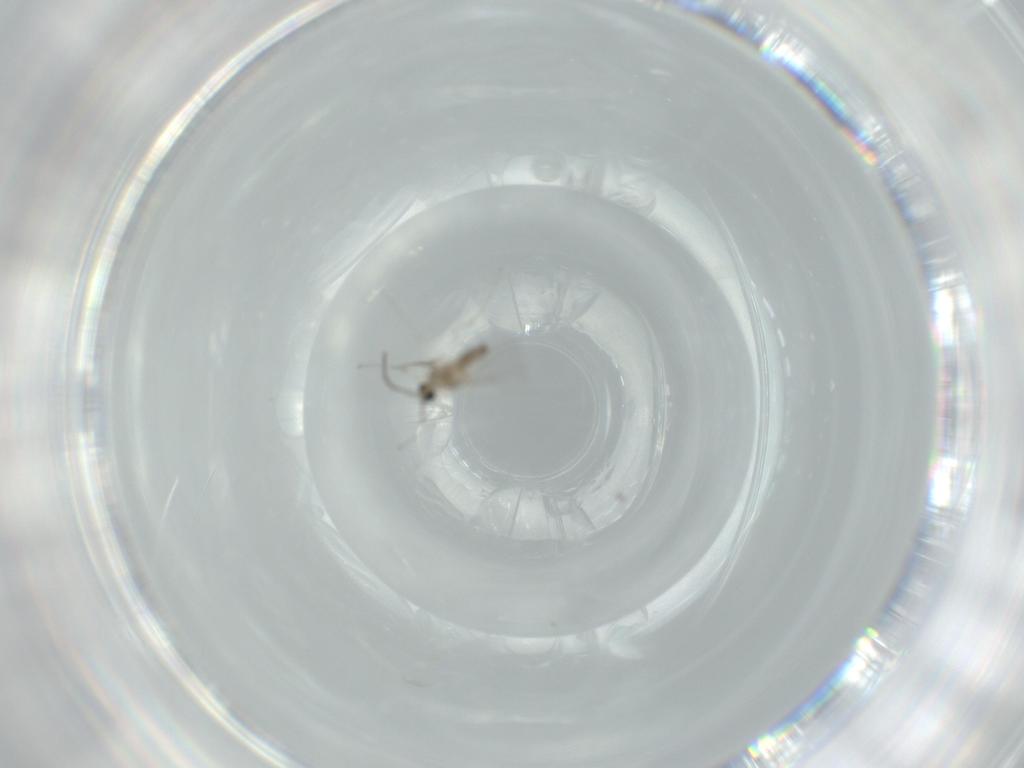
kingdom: Animalia
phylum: Arthropoda
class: Insecta
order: Diptera
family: Sciaridae
